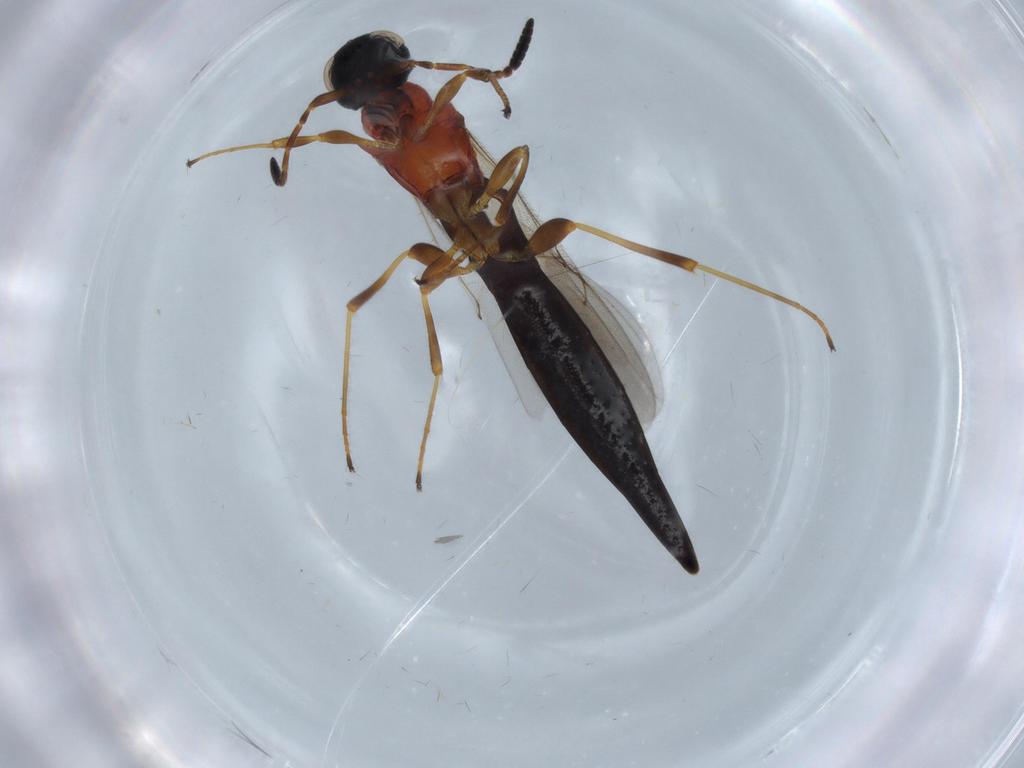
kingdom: Animalia
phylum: Arthropoda
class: Insecta
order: Hymenoptera
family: Scelionidae
